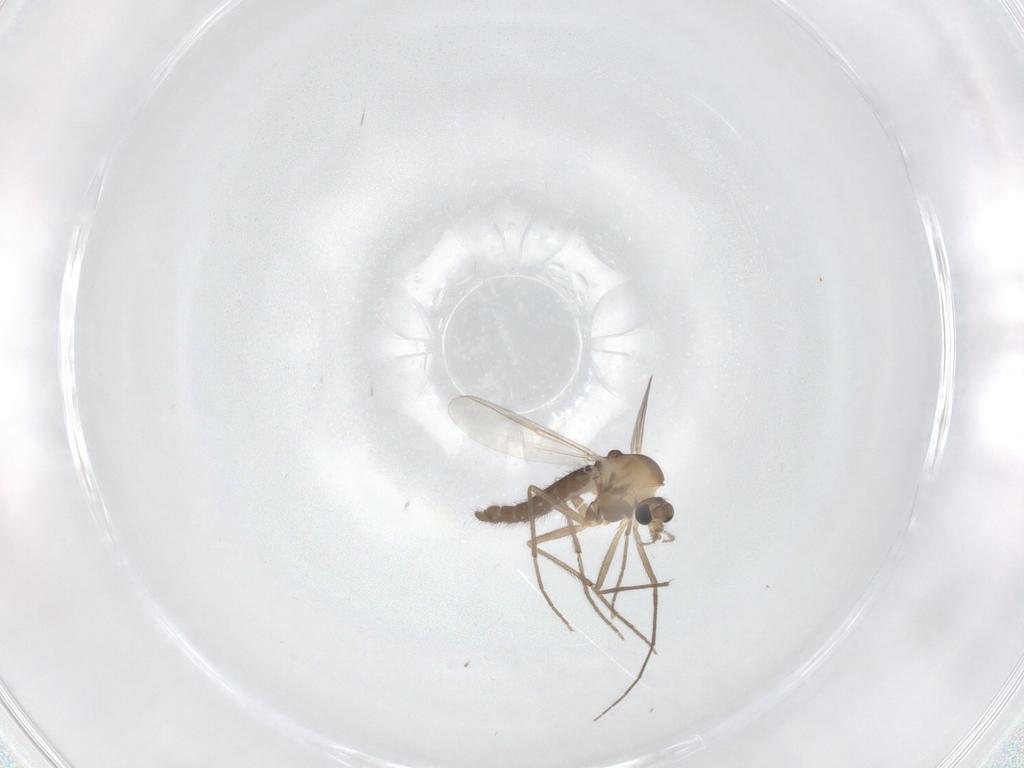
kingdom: Animalia
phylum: Arthropoda
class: Insecta
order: Diptera
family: Chironomidae
